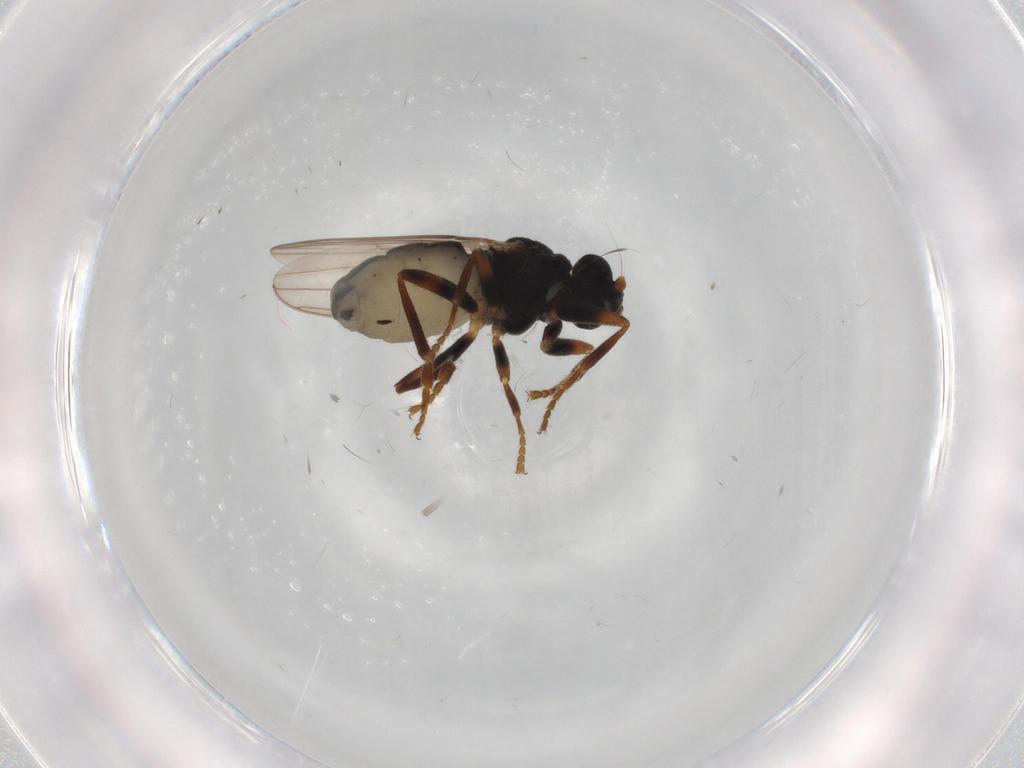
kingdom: Animalia
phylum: Arthropoda
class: Insecta
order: Diptera
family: Sphaeroceridae
